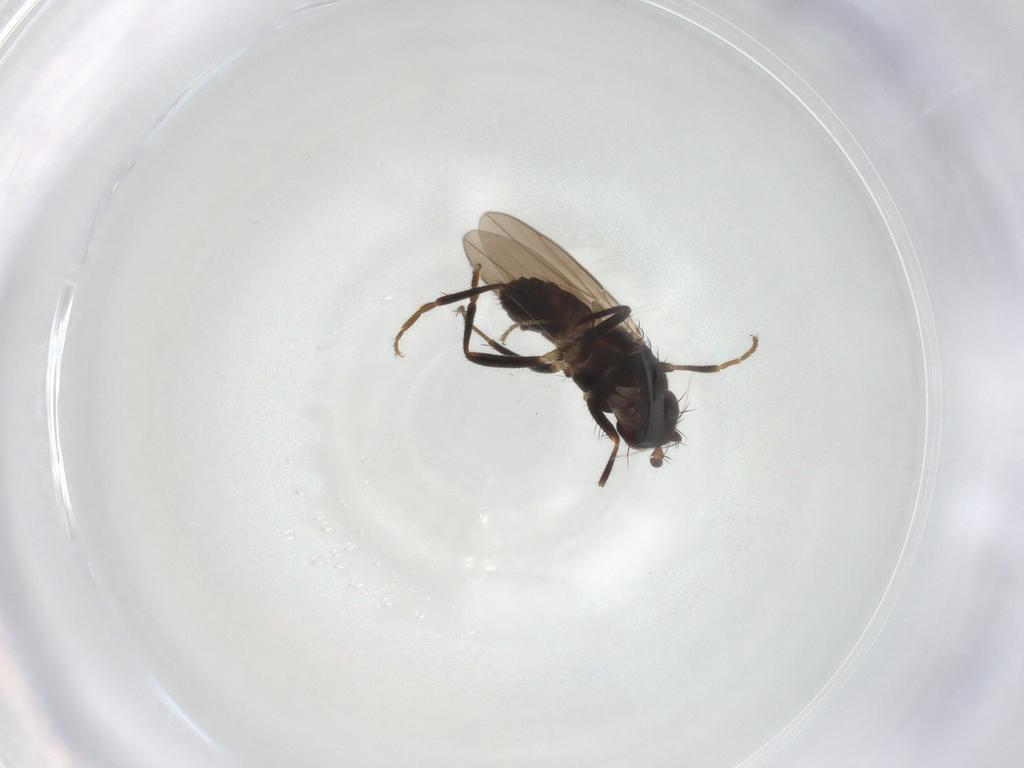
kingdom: Animalia
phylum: Arthropoda
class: Insecta
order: Diptera
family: Sphaeroceridae
